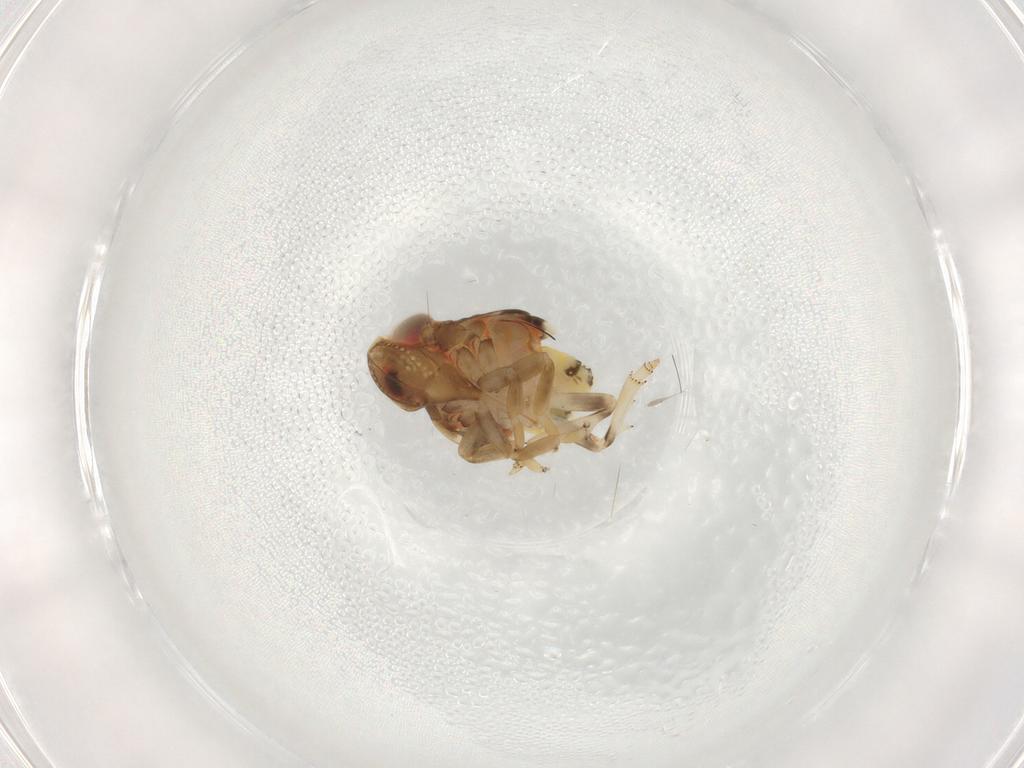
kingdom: Animalia
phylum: Arthropoda
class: Insecta
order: Hemiptera
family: Nogodinidae
